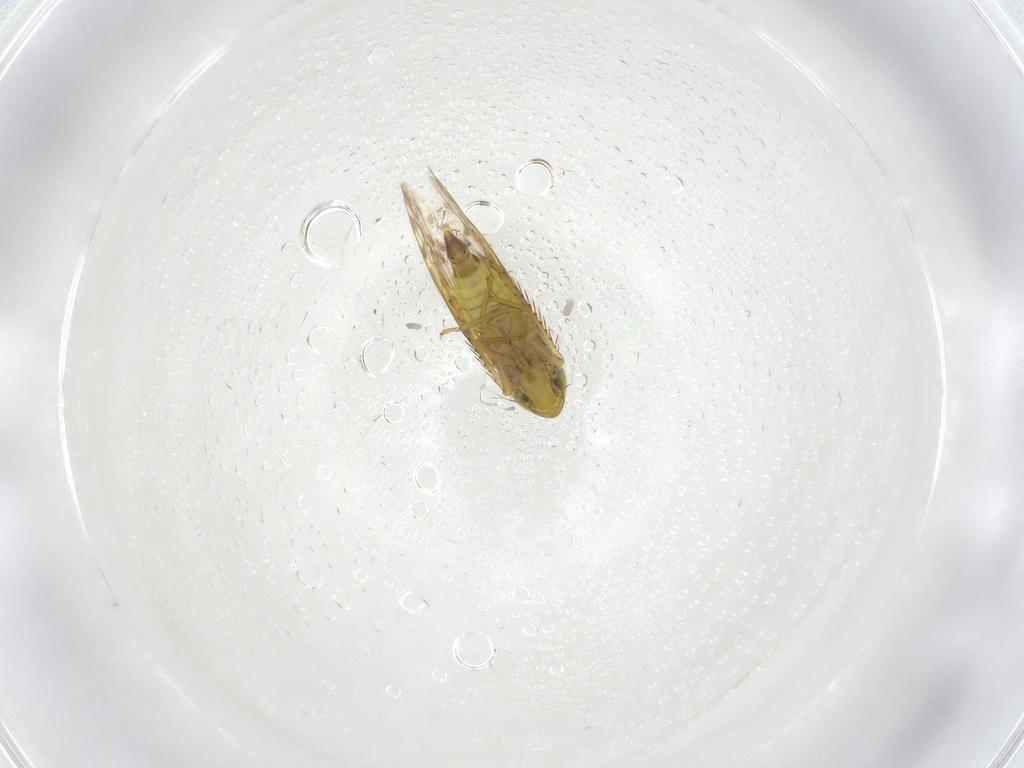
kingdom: Animalia
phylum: Arthropoda
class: Insecta
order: Hemiptera
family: Cicadellidae
